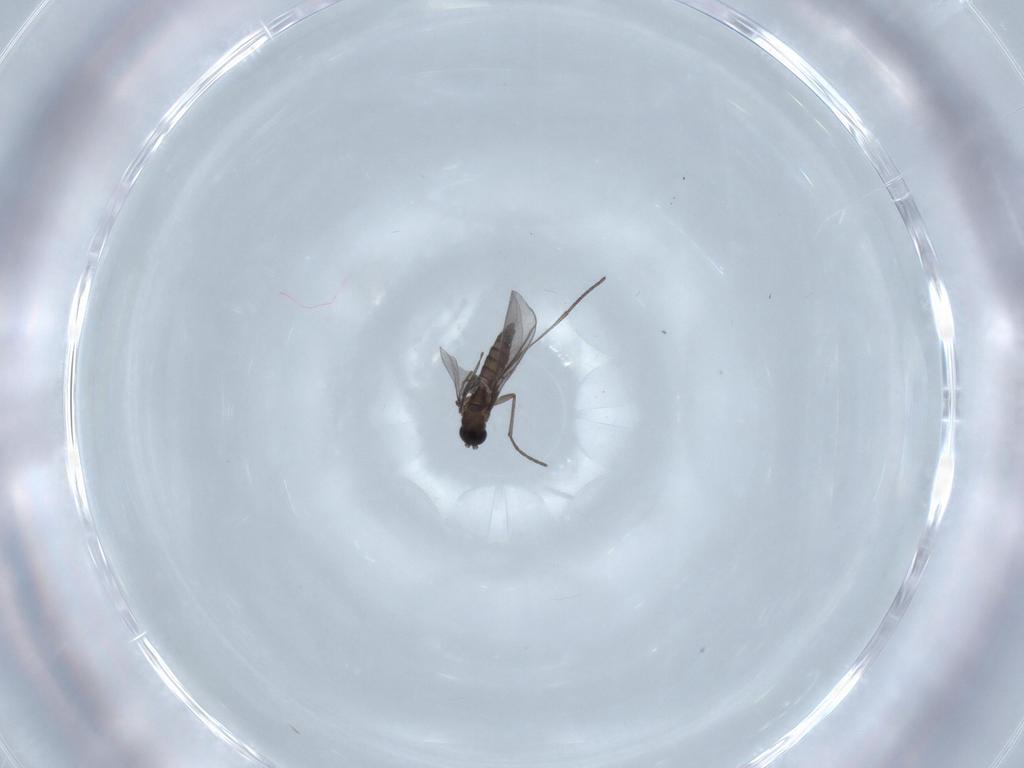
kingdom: Animalia
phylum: Arthropoda
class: Insecta
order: Diptera
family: Sciaridae
